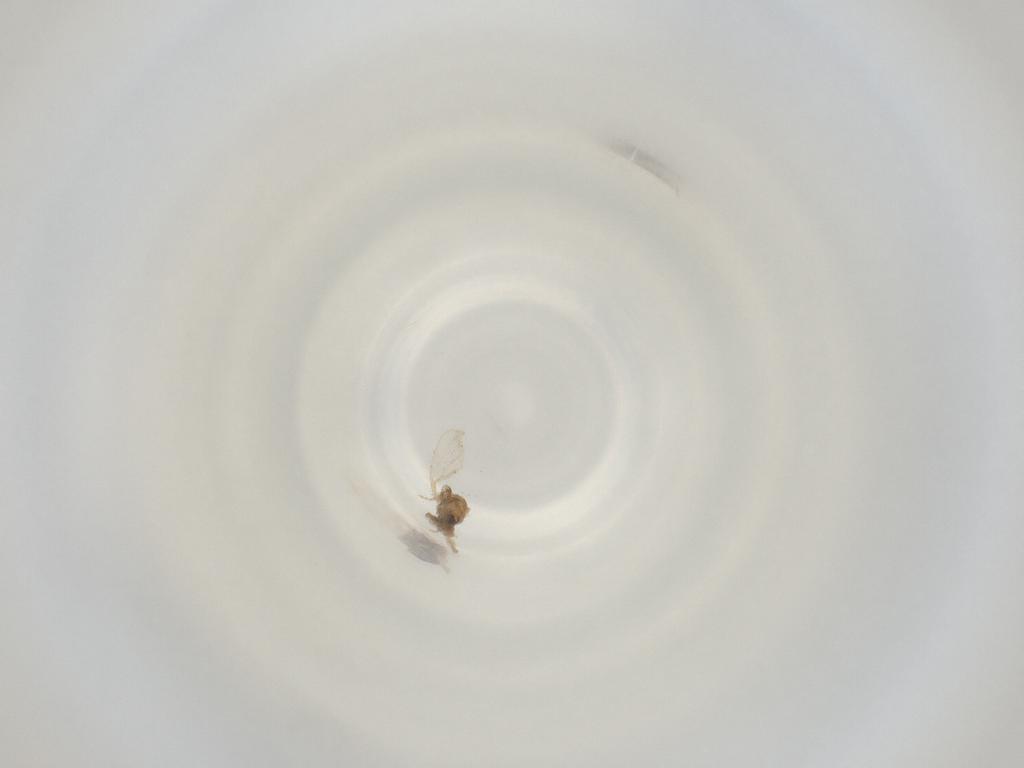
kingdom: Animalia
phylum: Arthropoda
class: Insecta
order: Diptera
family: Cecidomyiidae
